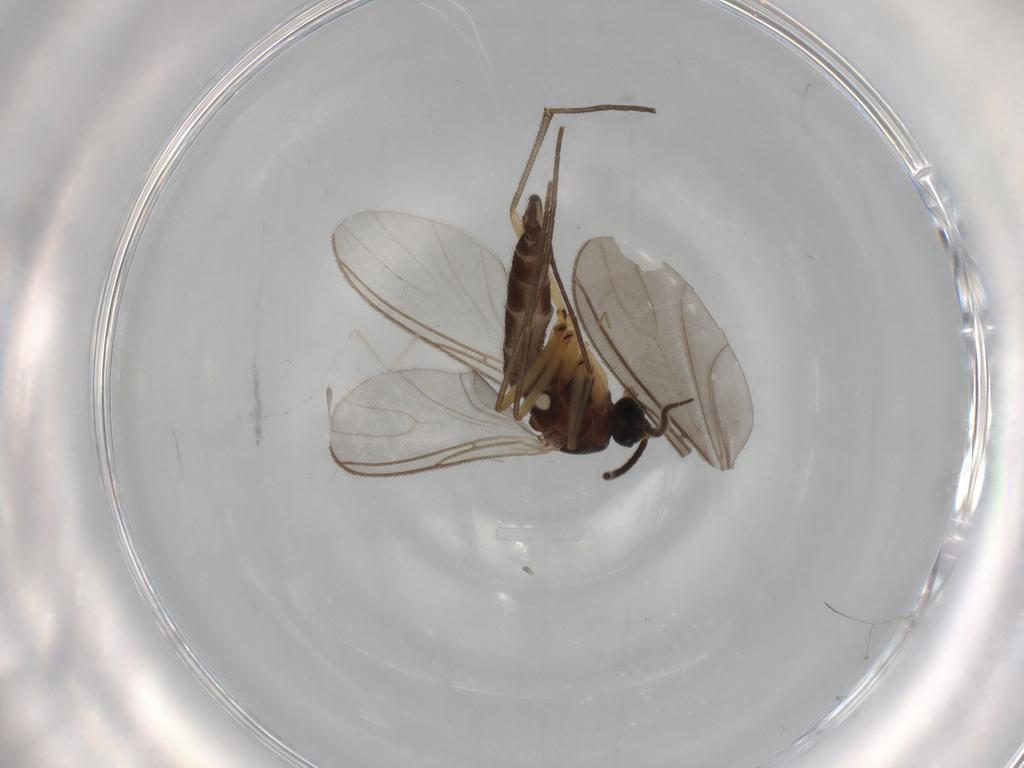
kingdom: Animalia
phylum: Arthropoda
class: Insecta
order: Diptera
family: Sciaridae
